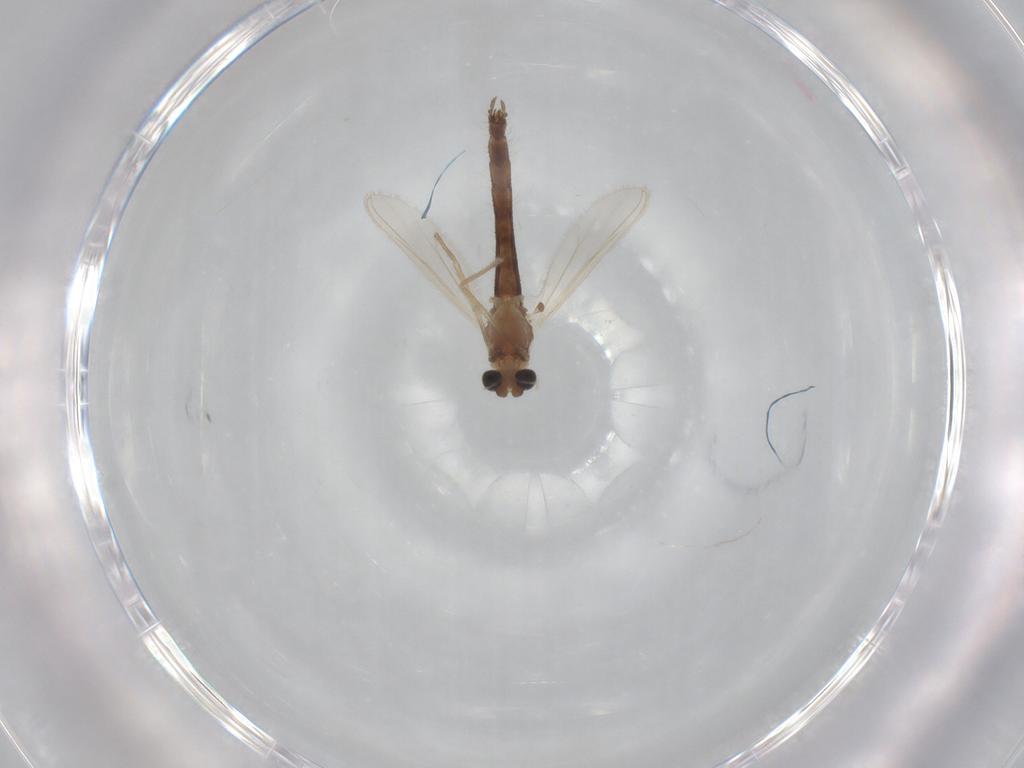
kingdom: Animalia
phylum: Arthropoda
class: Insecta
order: Diptera
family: Chironomidae
